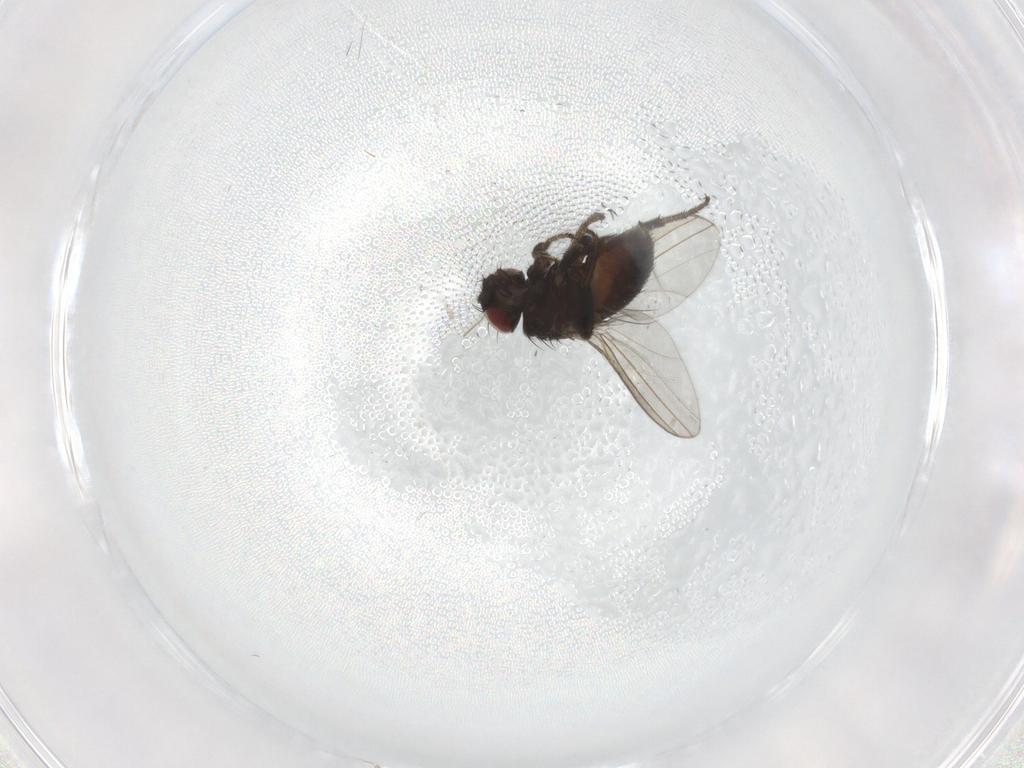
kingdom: Animalia
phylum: Arthropoda
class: Insecta
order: Diptera
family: Milichiidae
